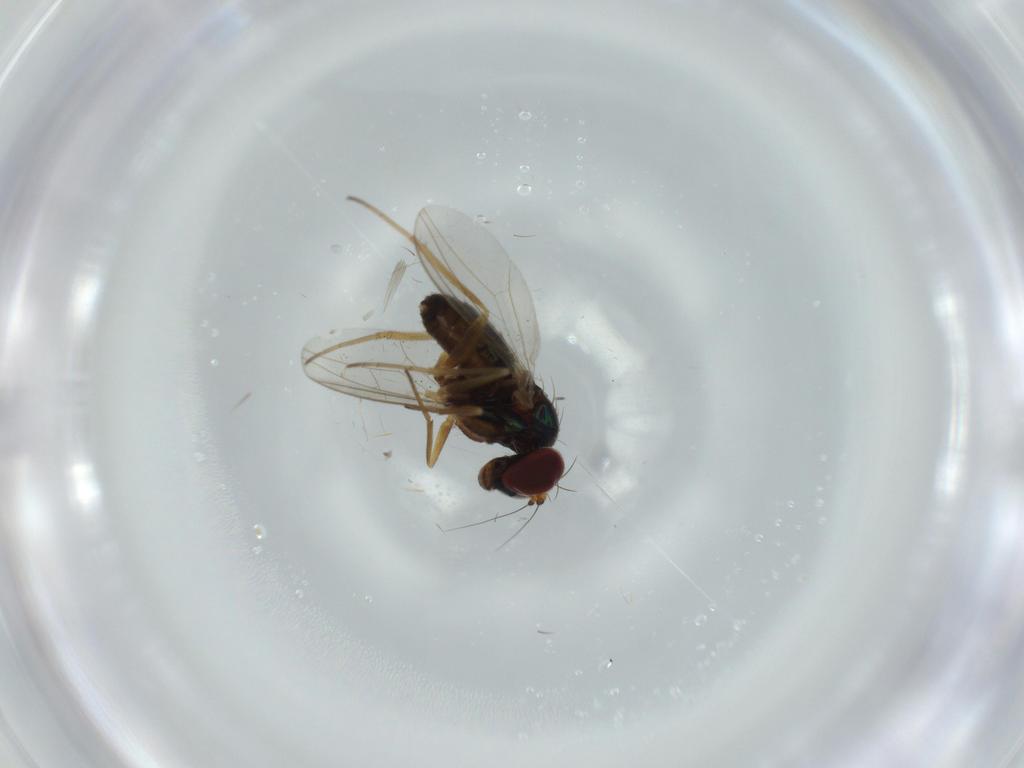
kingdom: Animalia
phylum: Arthropoda
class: Insecta
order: Diptera
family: Dolichopodidae
